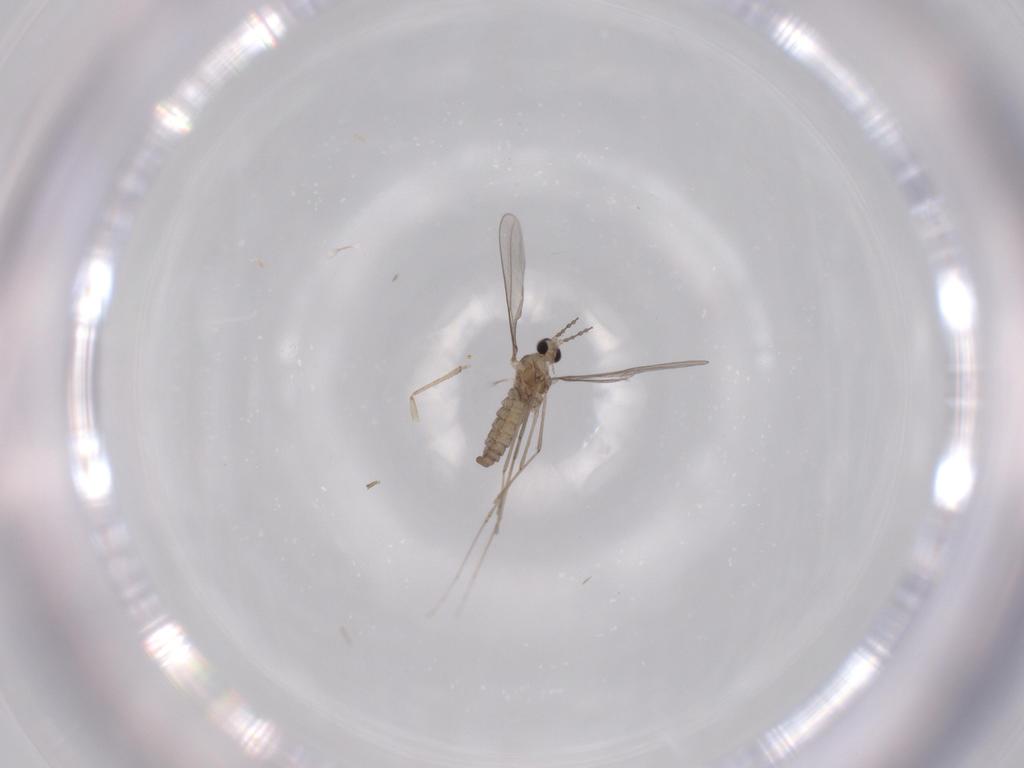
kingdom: Animalia
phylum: Arthropoda
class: Insecta
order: Diptera
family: Cecidomyiidae
